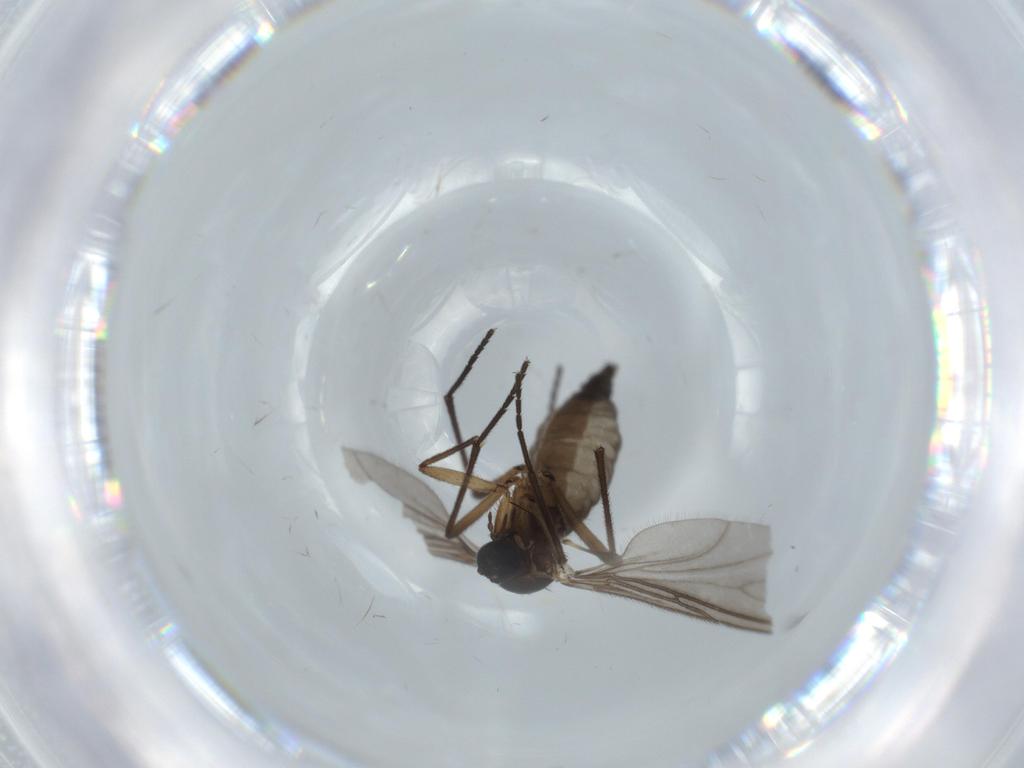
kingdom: Animalia
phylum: Arthropoda
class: Insecta
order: Diptera
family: Sciaridae
